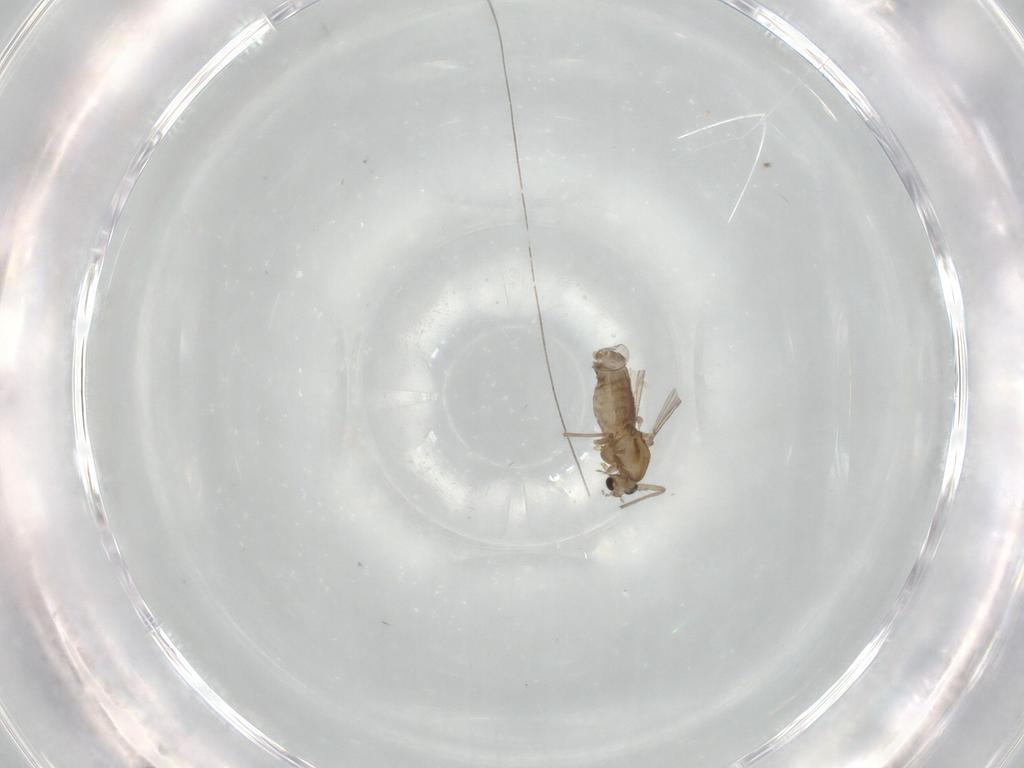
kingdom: Animalia
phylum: Arthropoda
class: Insecta
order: Diptera
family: Chironomidae
